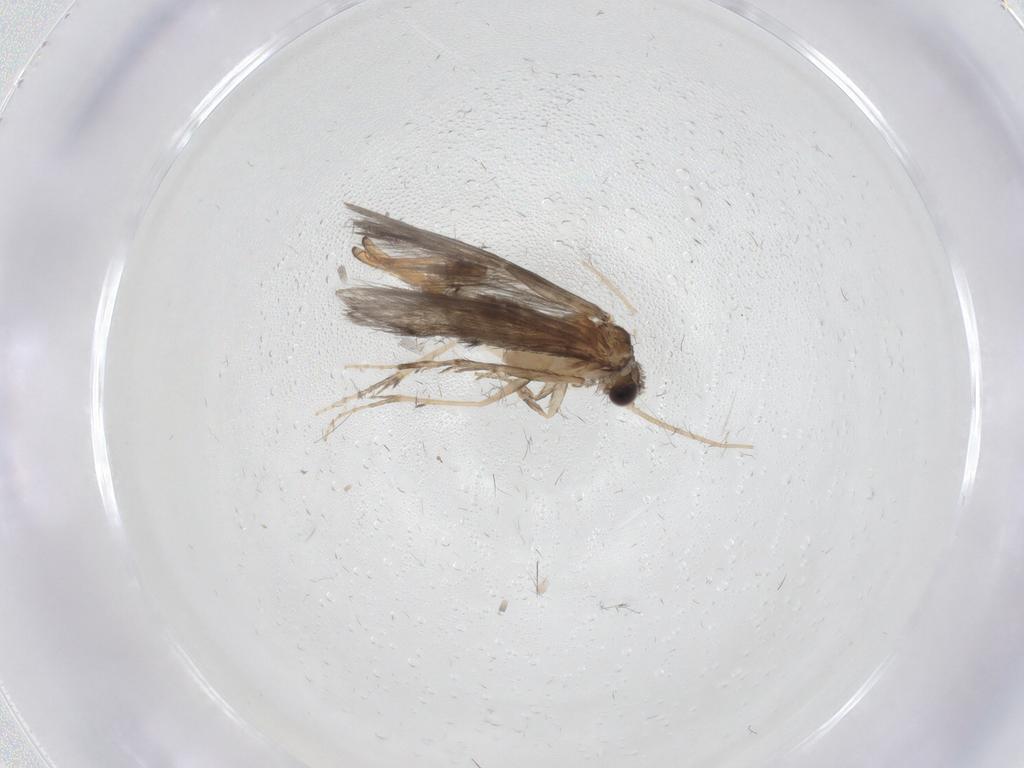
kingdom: Animalia
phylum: Arthropoda
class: Insecta
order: Trichoptera
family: Hydroptilidae
